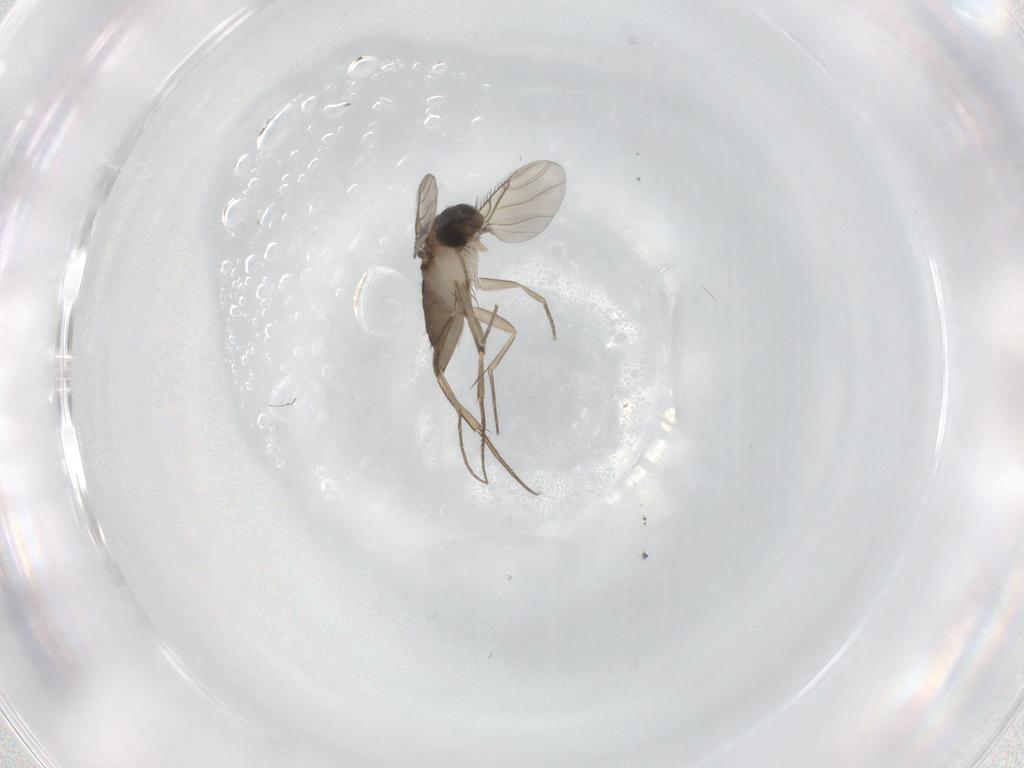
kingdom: Animalia
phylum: Arthropoda
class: Insecta
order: Diptera
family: Phoridae
